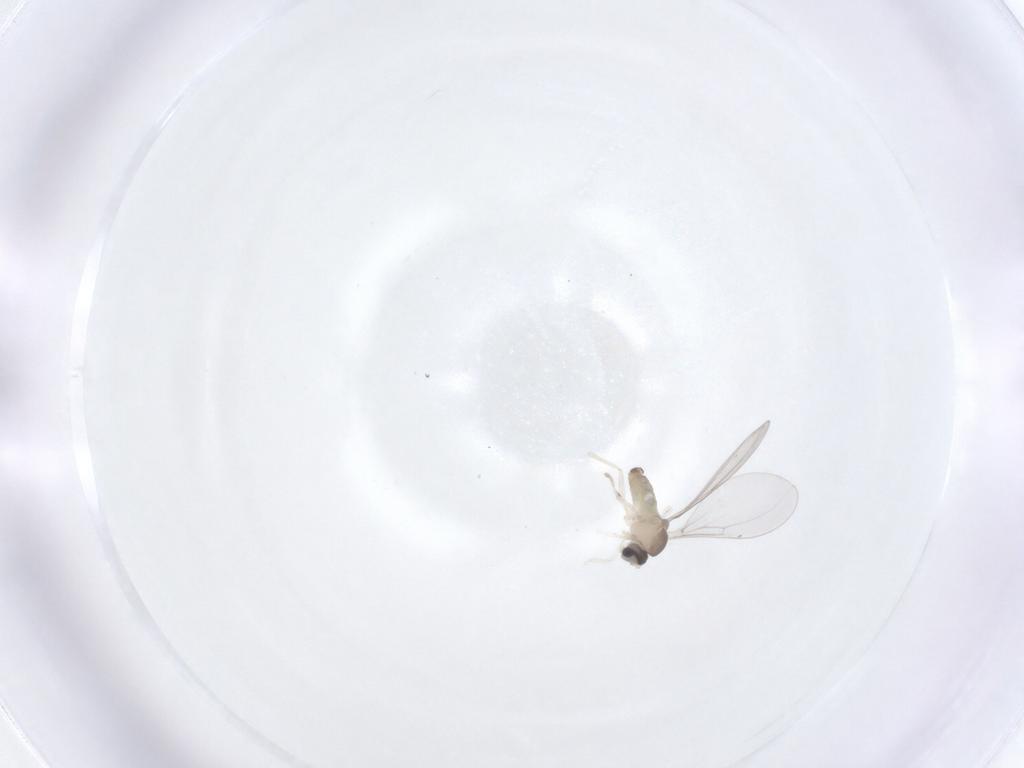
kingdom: Animalia
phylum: Arthropoda
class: Insecta
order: Diptera
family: Cecidomyiidae
